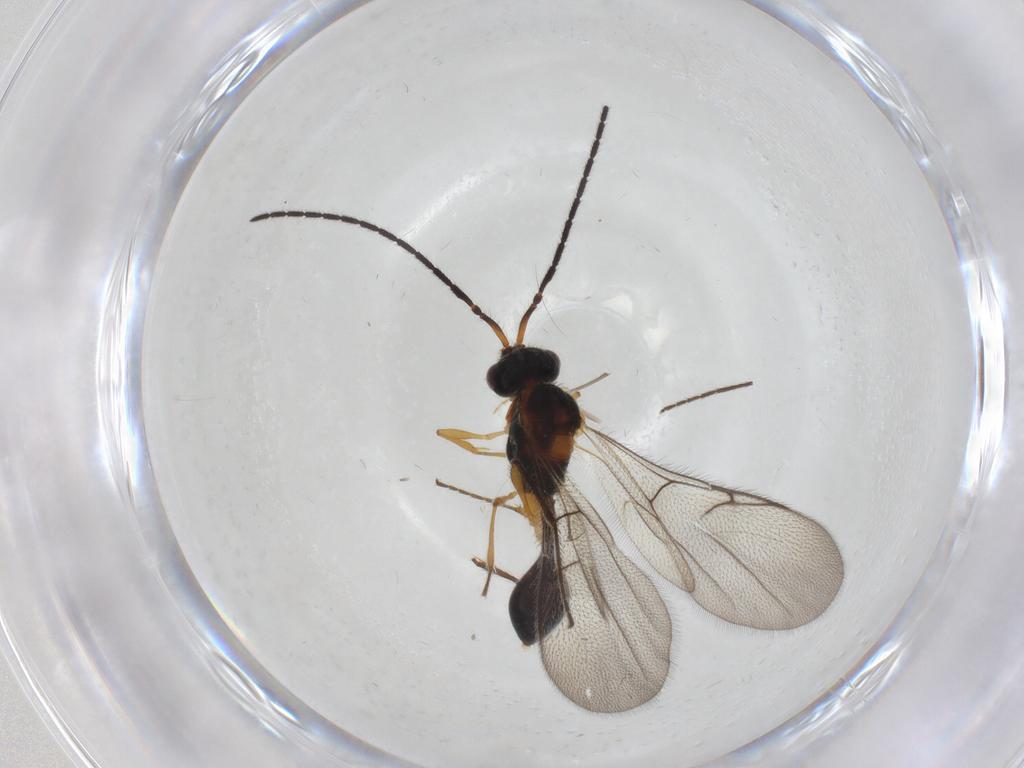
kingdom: Animalia
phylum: Arthropoda
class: Insecta
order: Hymenoptera
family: Diapriidae
